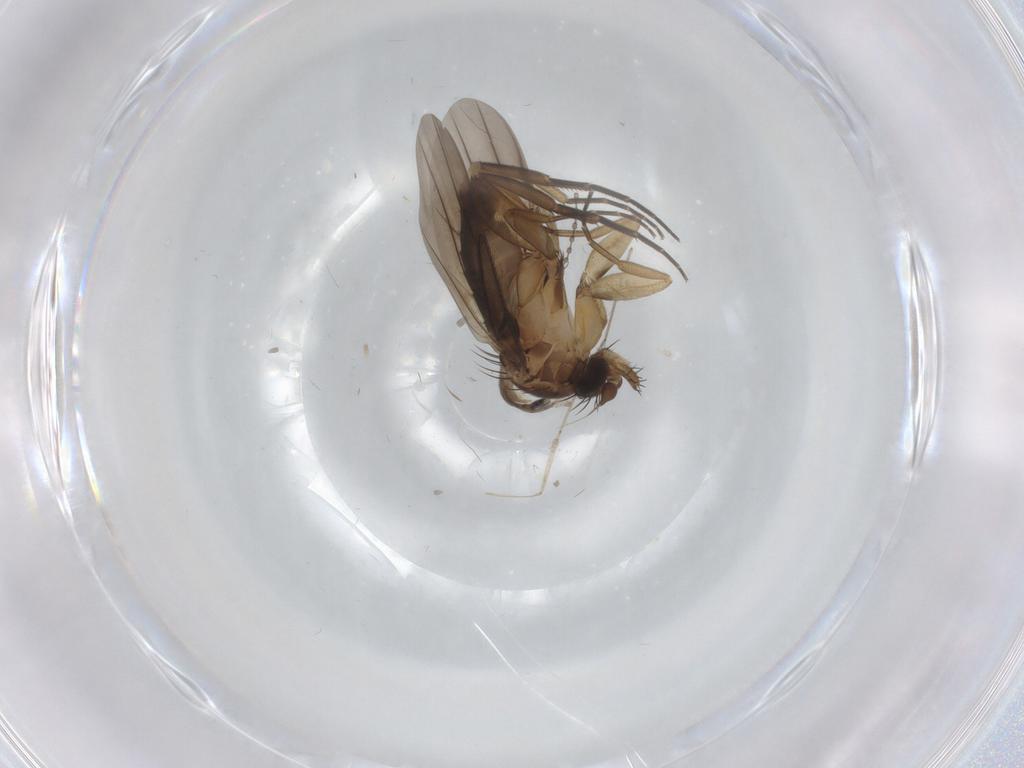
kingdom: Animalia
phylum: Arthropoda
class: Insecta
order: Diptera
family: Phoridae
